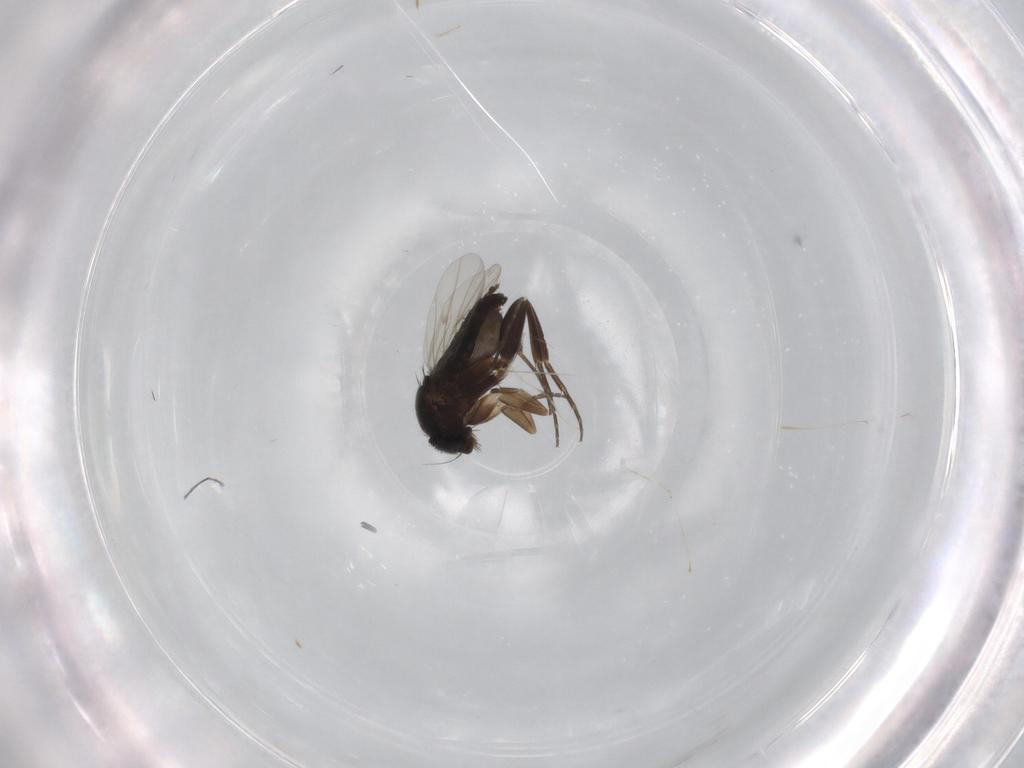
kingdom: Animalia
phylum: Arthropoda
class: Insecta
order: Diptera
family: Phoridae
